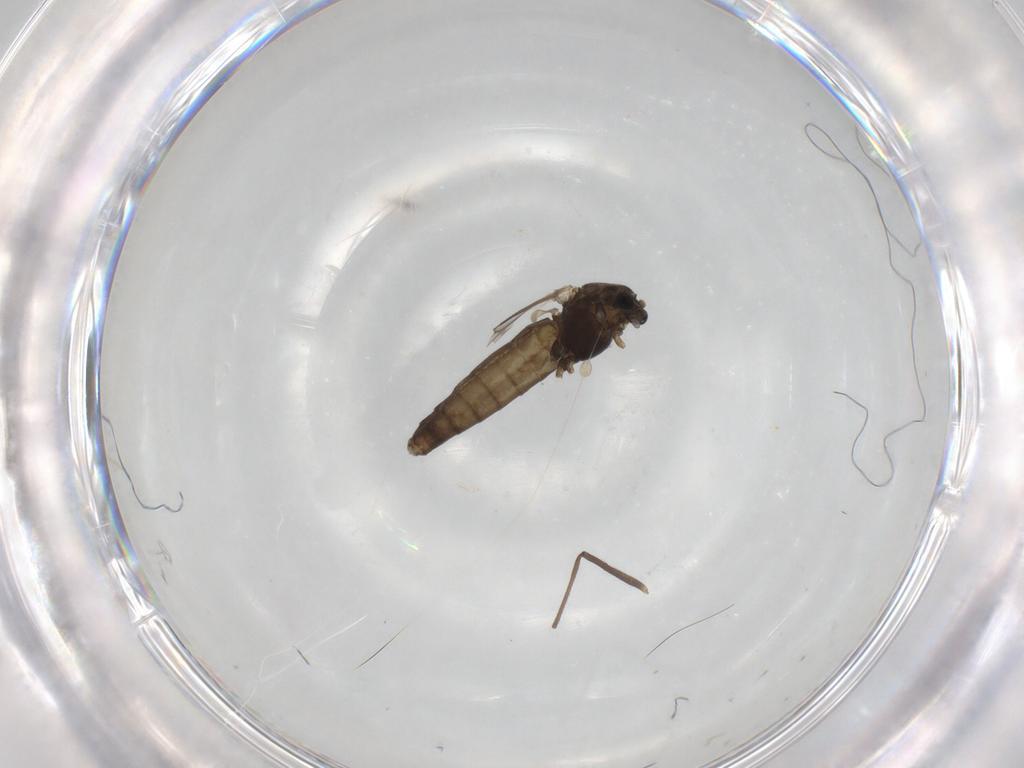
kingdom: Animalia
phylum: Arthropoda
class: Insecta
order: Diptera
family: Chironomidae
